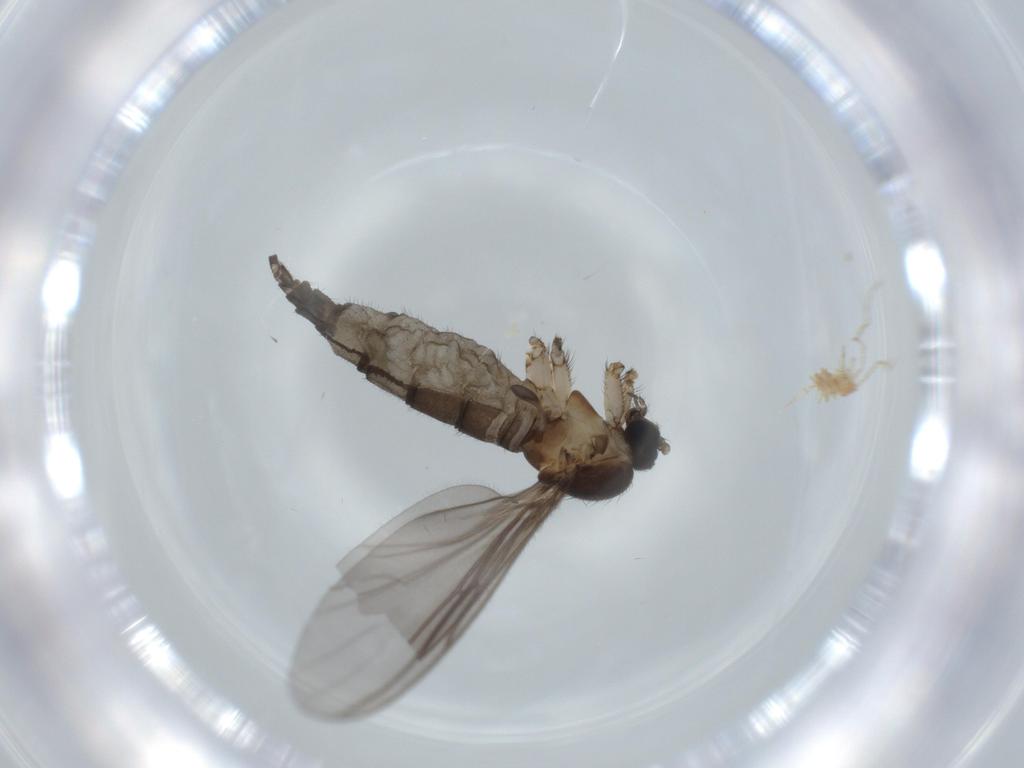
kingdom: Animalia
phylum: Arthropoda
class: Insecta
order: Diptera
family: Sciaridae
